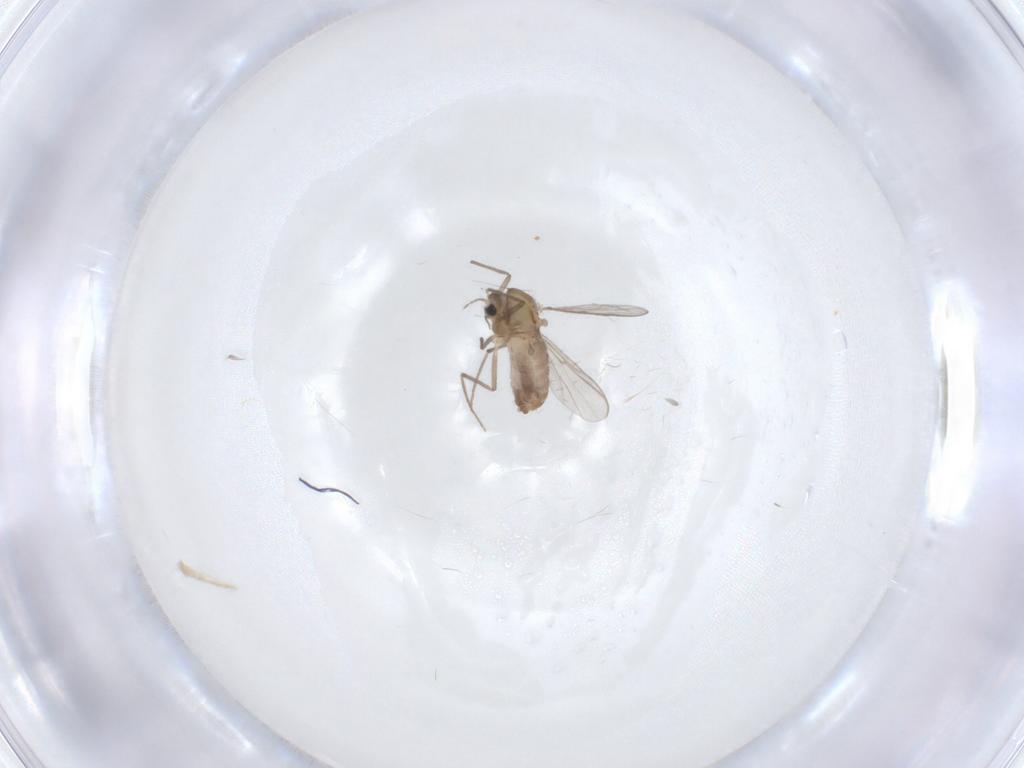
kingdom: Animalia
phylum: Arthropoda
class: Insecta
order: Diptera
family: Chironomidae
